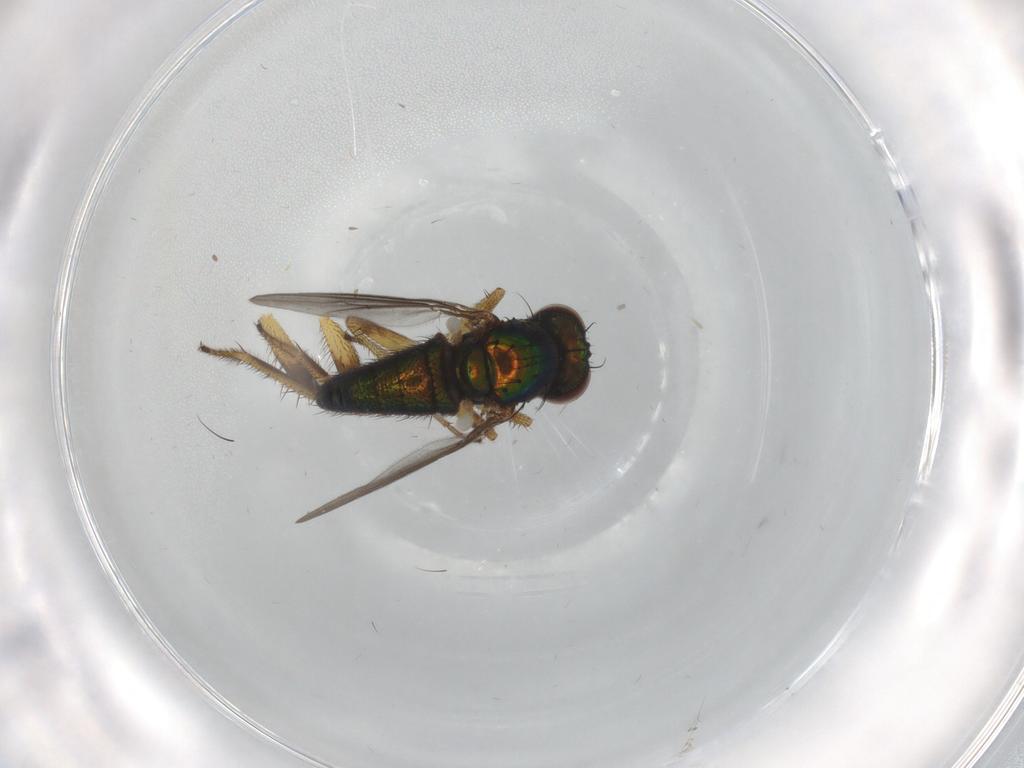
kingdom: Animalia
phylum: Arthropoda
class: Insecta
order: Diptera
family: Dolichopodidae
